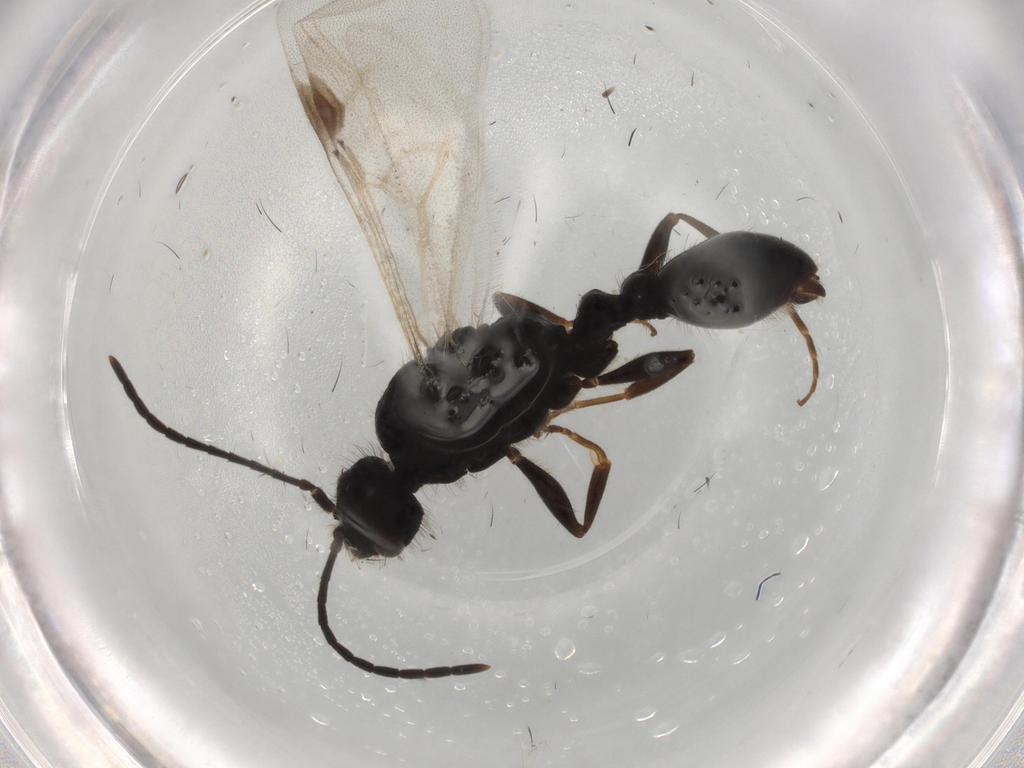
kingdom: Animalia
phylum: Arthropoda
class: Insecta
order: Hymenoptera
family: Formicidae
